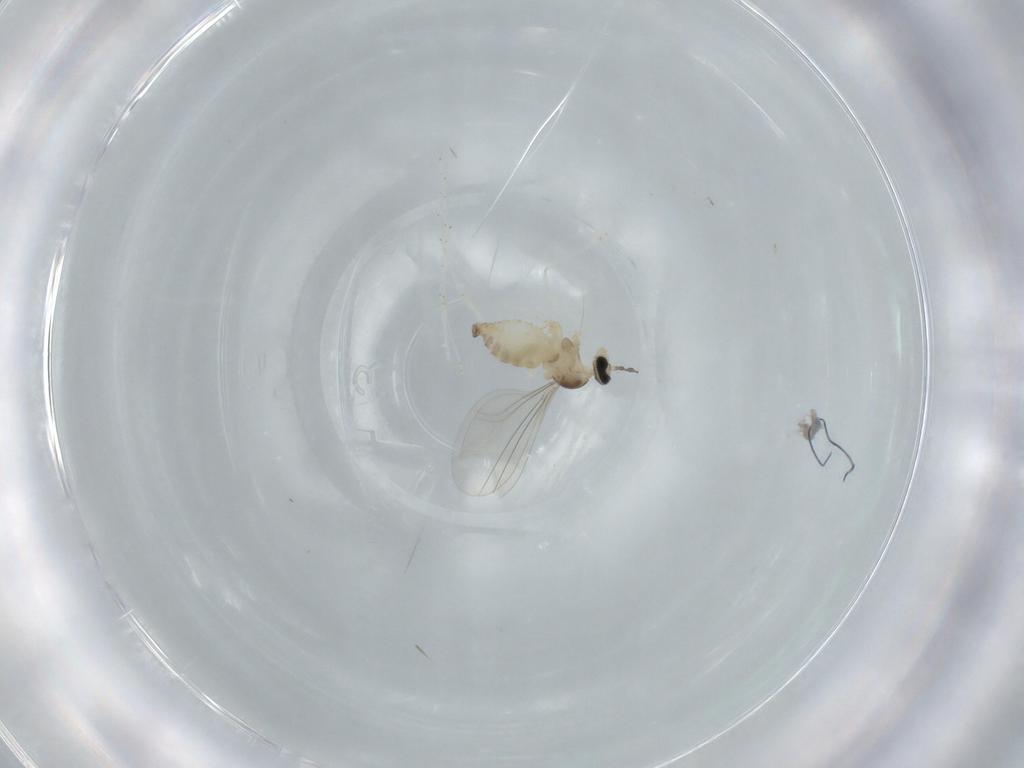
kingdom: Animalia
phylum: Arthropoda
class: Insecta
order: Diptera
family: Cecidomyiidae
